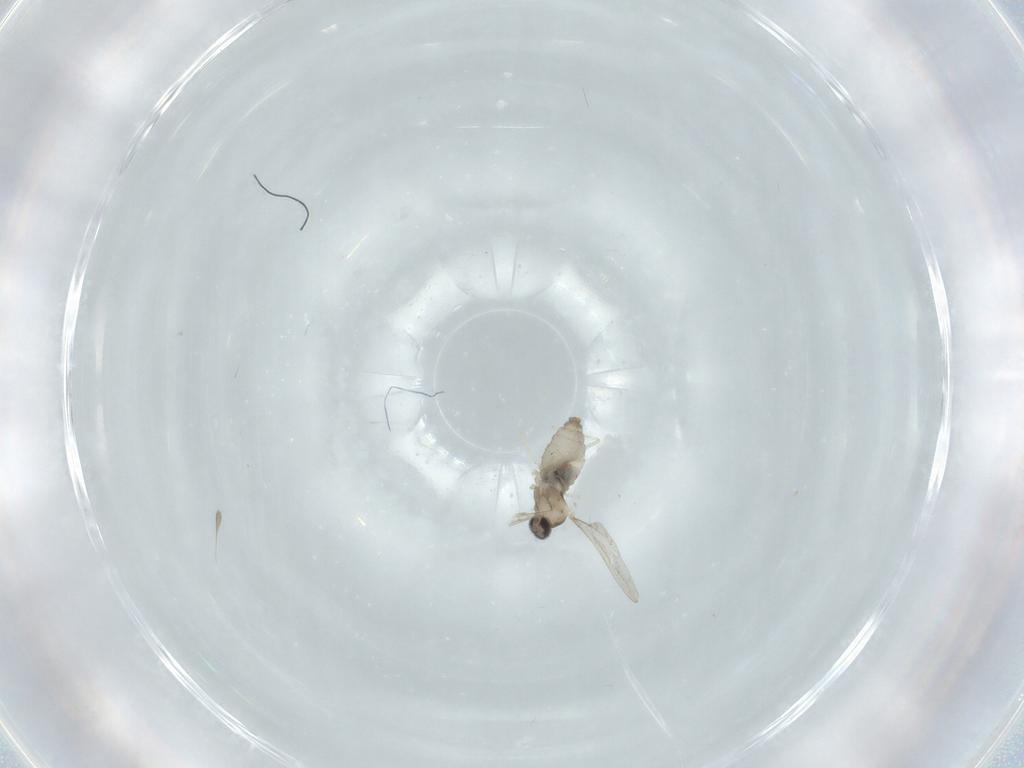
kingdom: Animalia
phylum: Arthropoda
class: Insecta
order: Diptera
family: Cecidomyiidae
